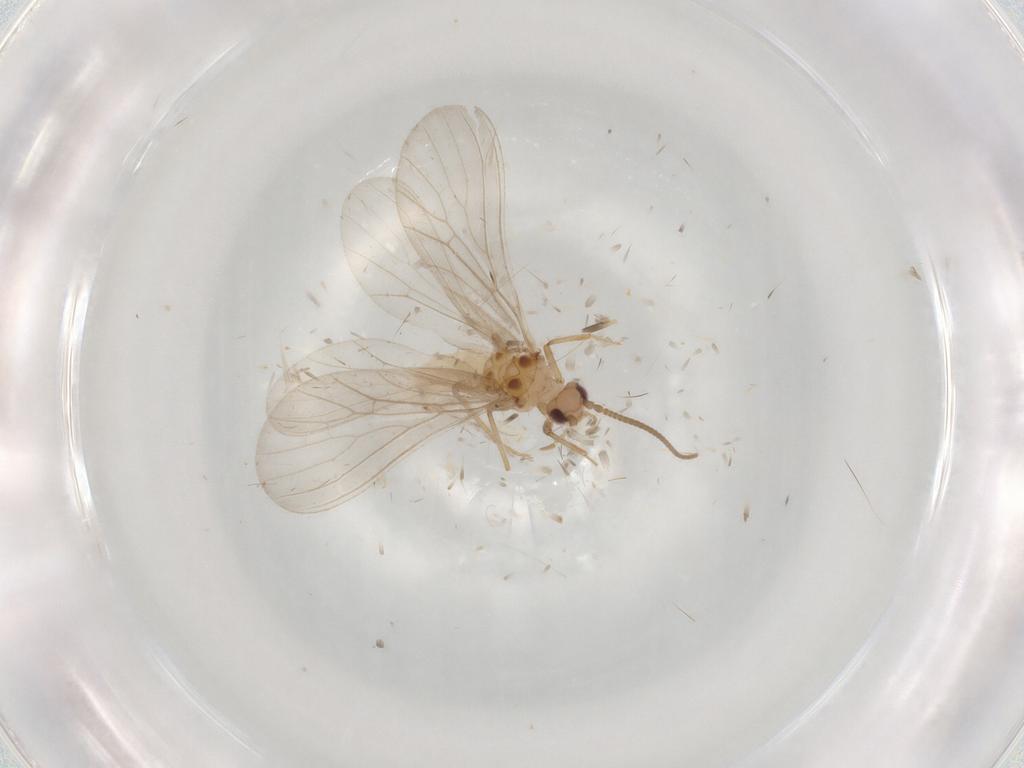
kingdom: Animalia
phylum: Arthropoda
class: Insecta
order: Neuroptera
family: Coniopterygidae
